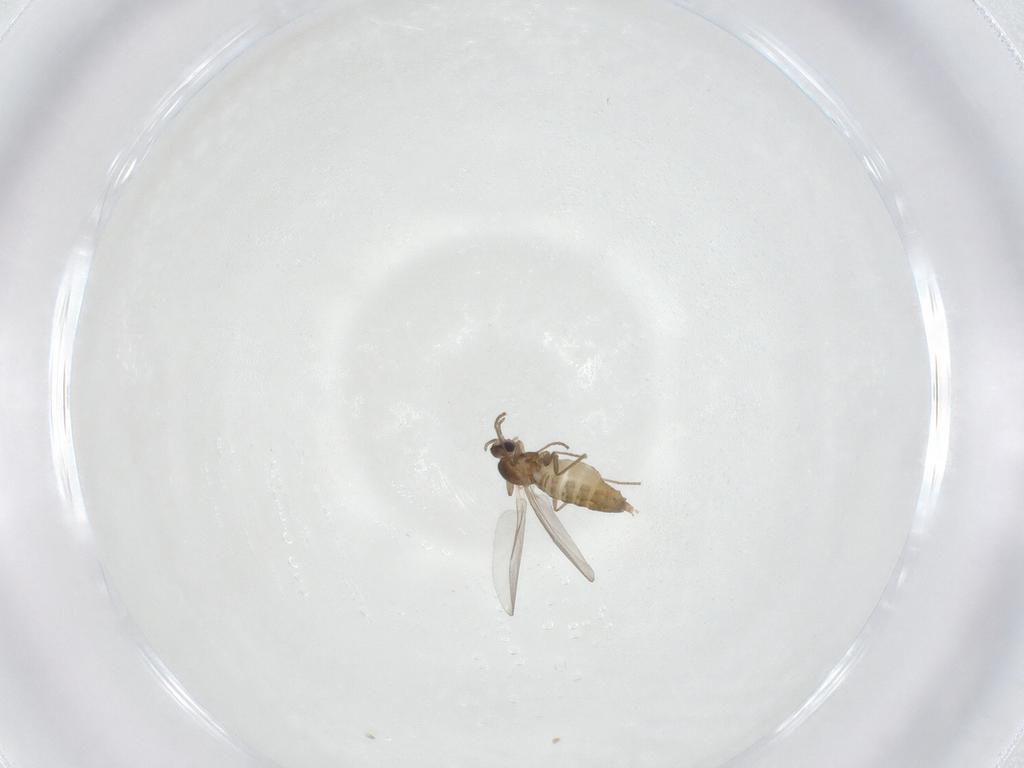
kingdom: Animalia
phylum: Arthropoda
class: Insecta
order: Diptera
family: Cecidomyiidae
